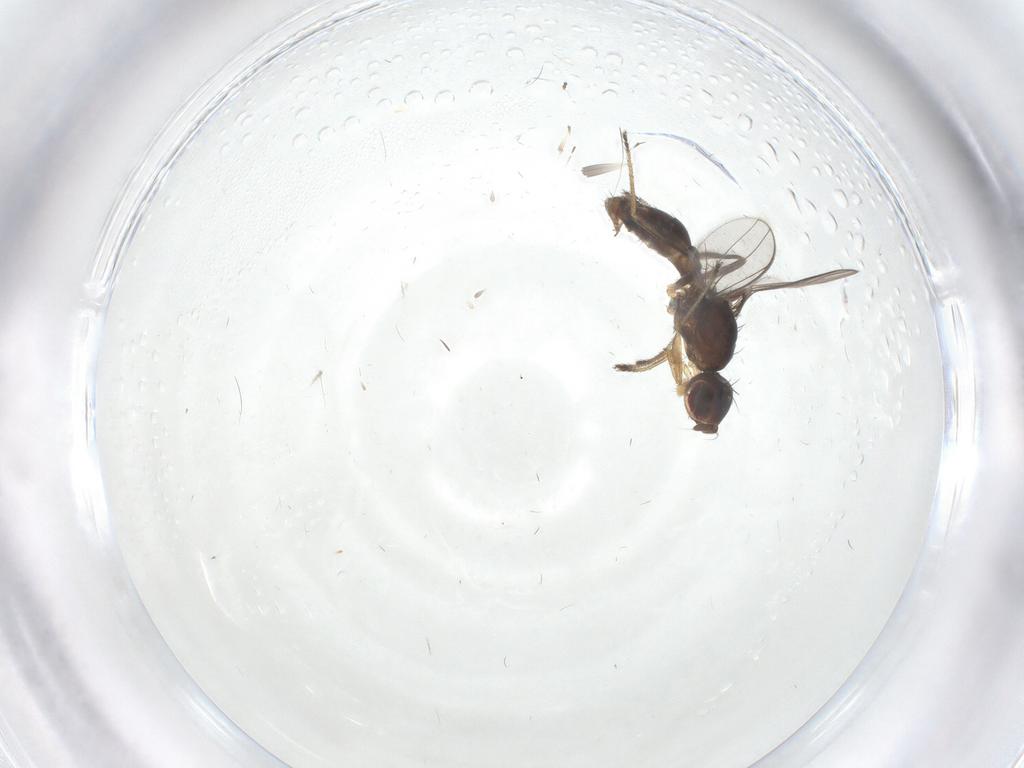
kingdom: Animalia
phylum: Arthropoda
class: Insecta
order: Diptera
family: Sepsidae
